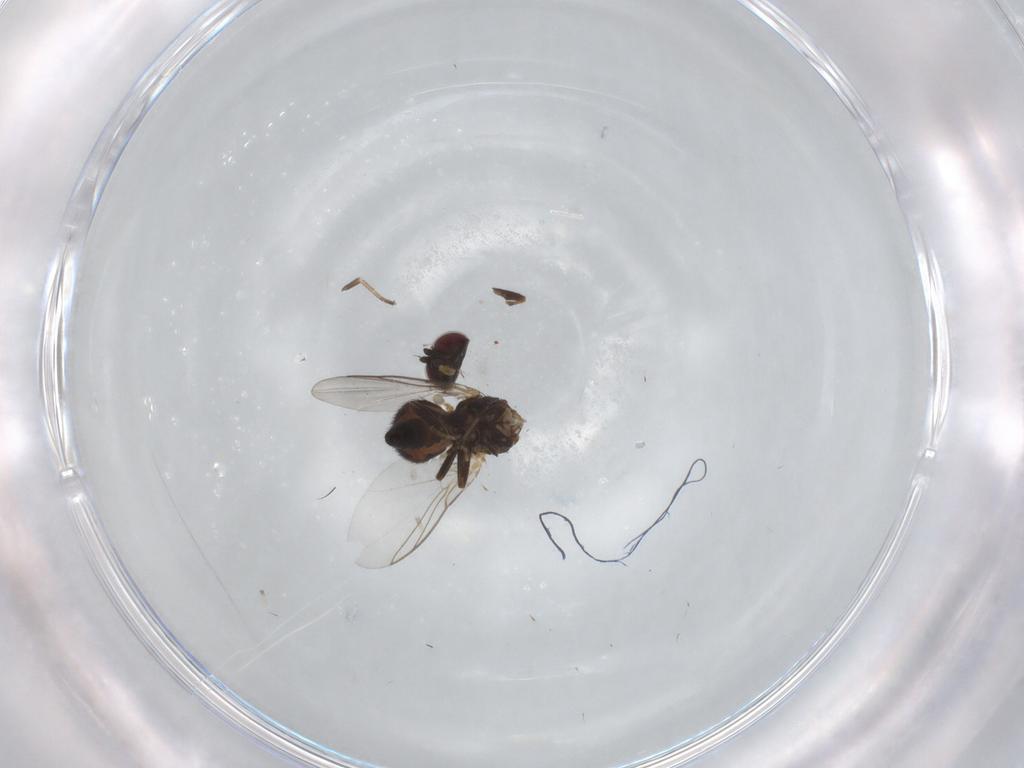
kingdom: Animalia
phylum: Arthropoda
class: Insecta
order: Diptera
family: Agromyzidae
